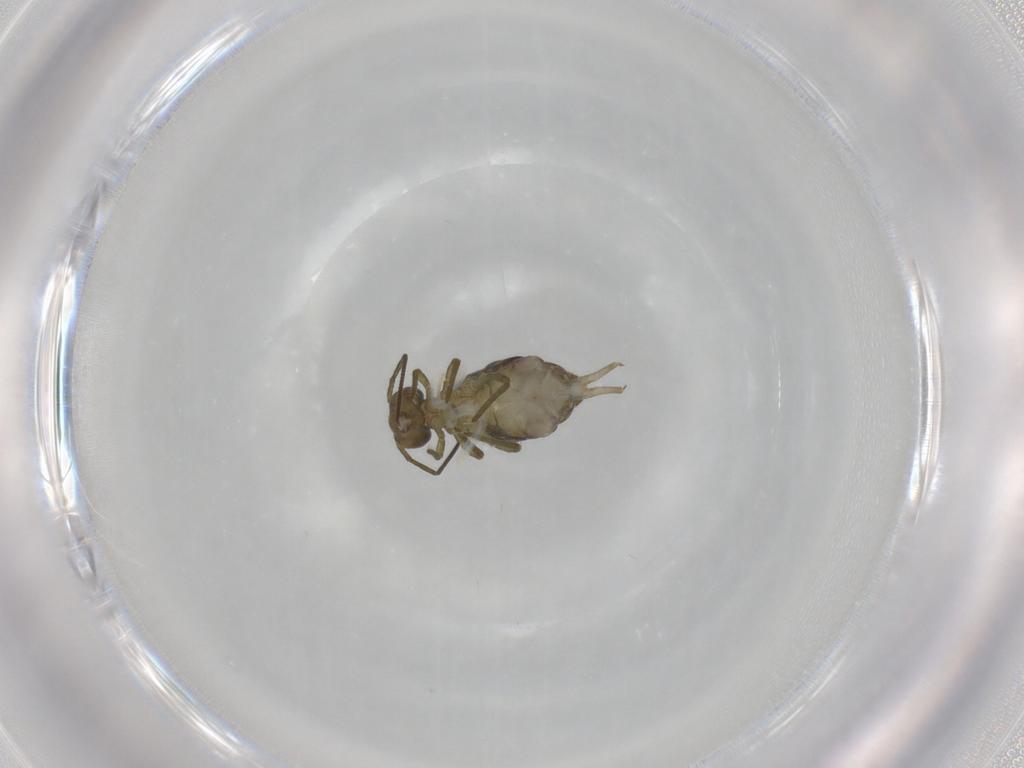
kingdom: Animalia
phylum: Arthropoda
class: Collembola
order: Symphypleona
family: Sminthuridae
